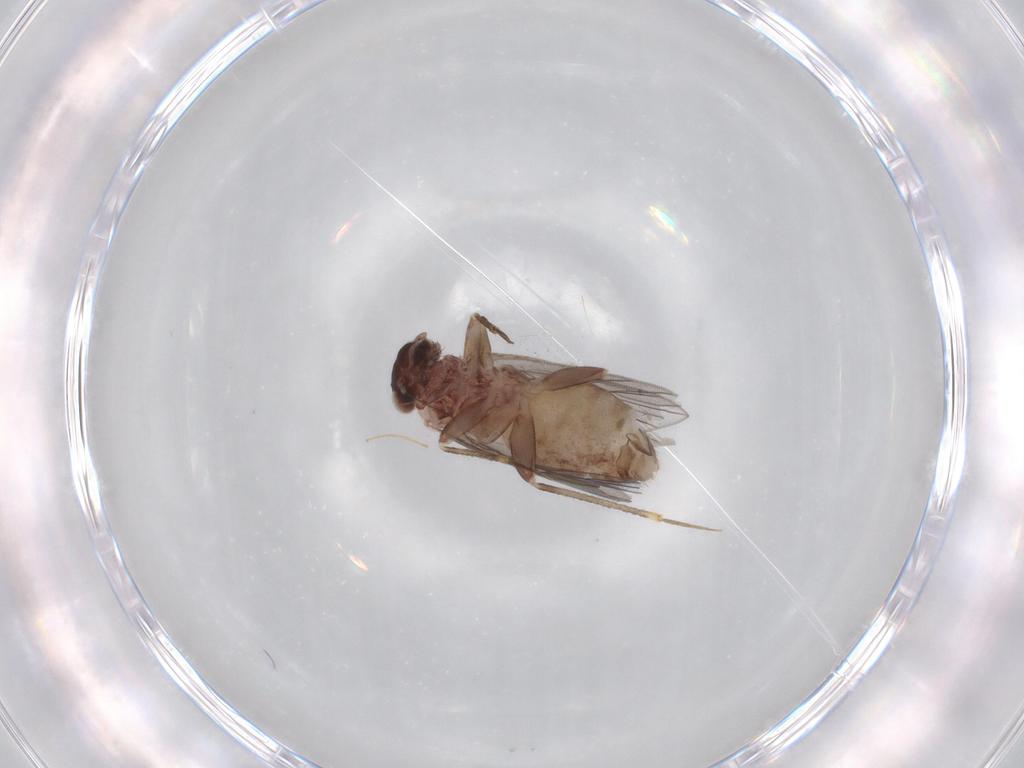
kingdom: Animalia
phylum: Arthropoda
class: Insecta
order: Psocodea
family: Lepidopsocidae
